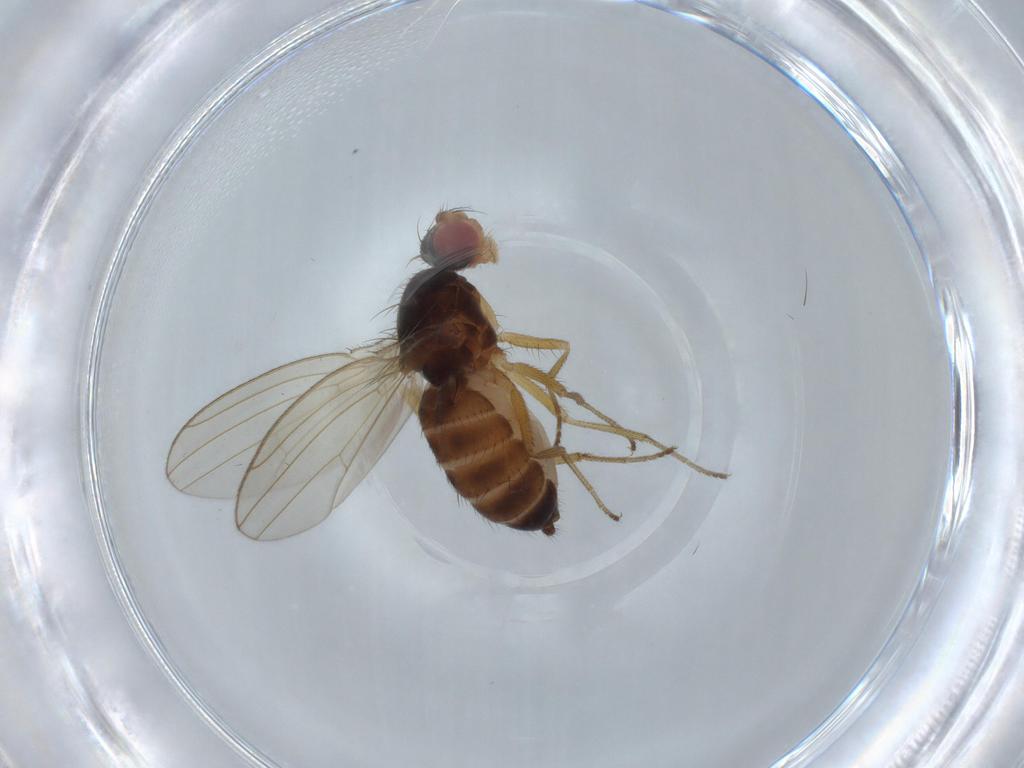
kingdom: Animalia
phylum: Arthropoda
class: Insecta
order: Diptera
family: Drosophilidae
